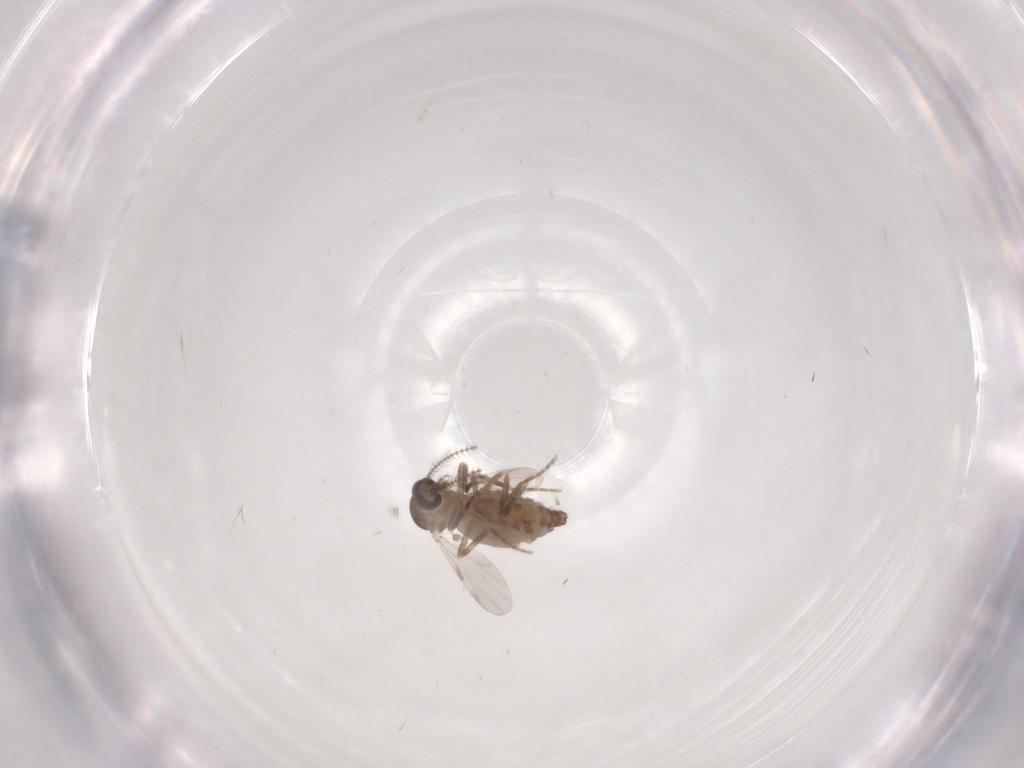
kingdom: Animalia
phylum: Arthropoda
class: Insecta
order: Diptera
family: Ceratopogonidae
